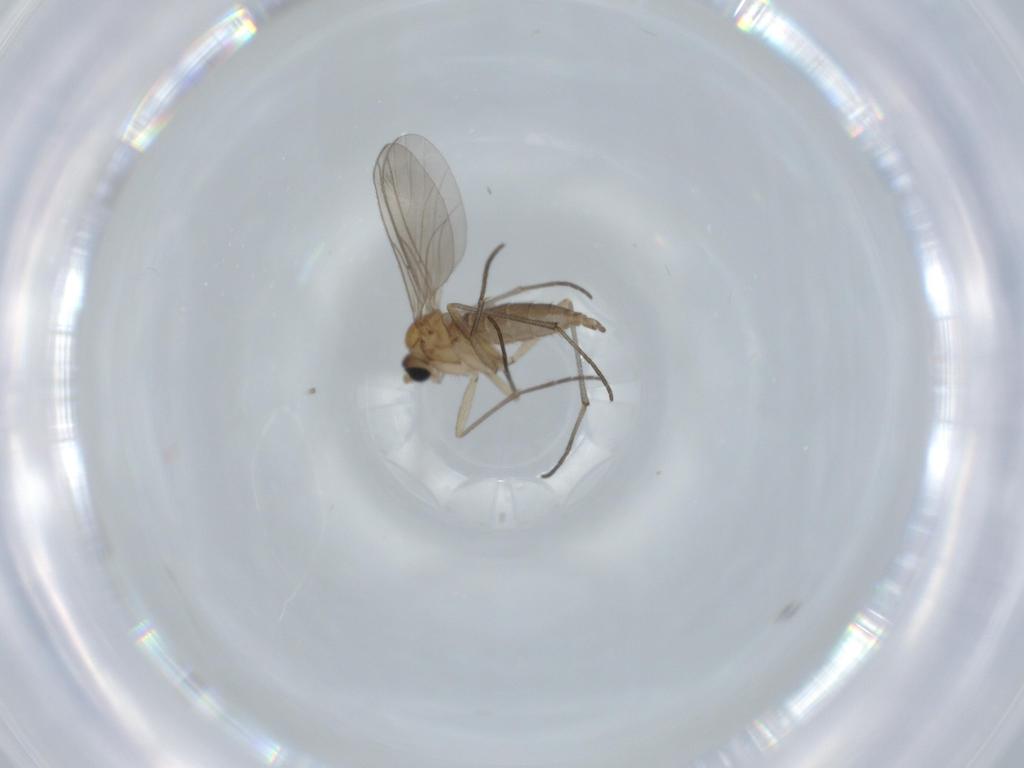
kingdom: Animalia
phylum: Arthropoda
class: Insecta
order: Diptera
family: Sciaridae
